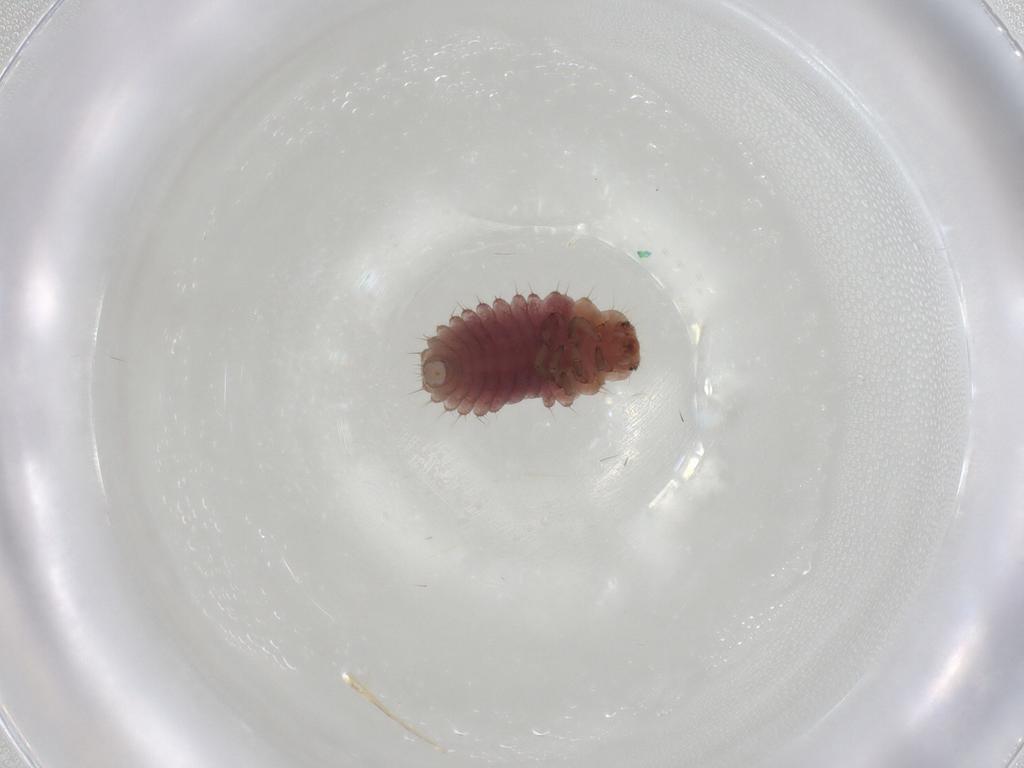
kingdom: Animalia
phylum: Arthropoda
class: Insecta
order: Coleoptera
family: Coccinellidae
